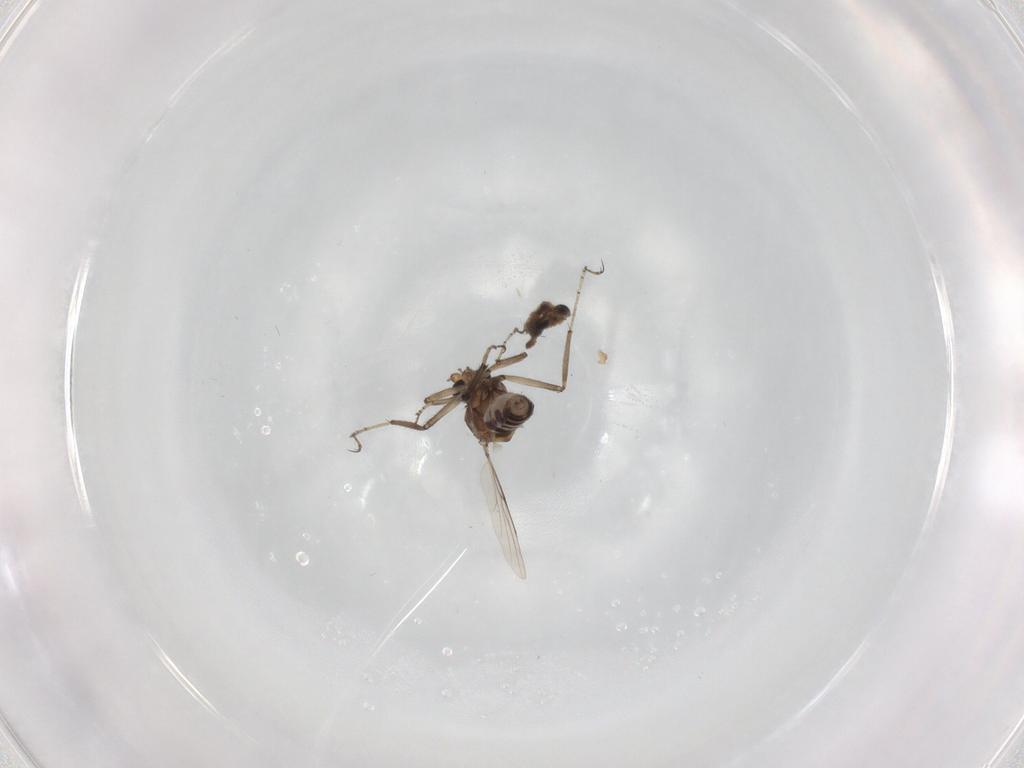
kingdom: Animalia
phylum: Arthropoda
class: Insecta
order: Diptera
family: Ceratopogonidae
